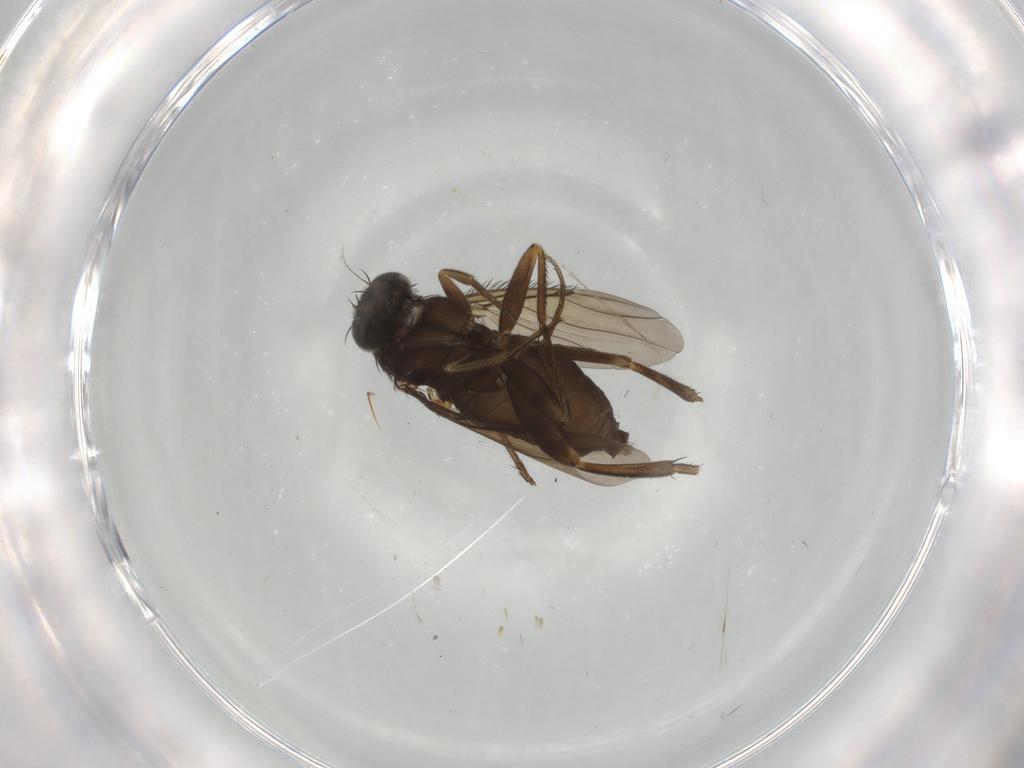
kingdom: Animalia
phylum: Arthropoda
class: Insecta
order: Diptera
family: Phoridae
